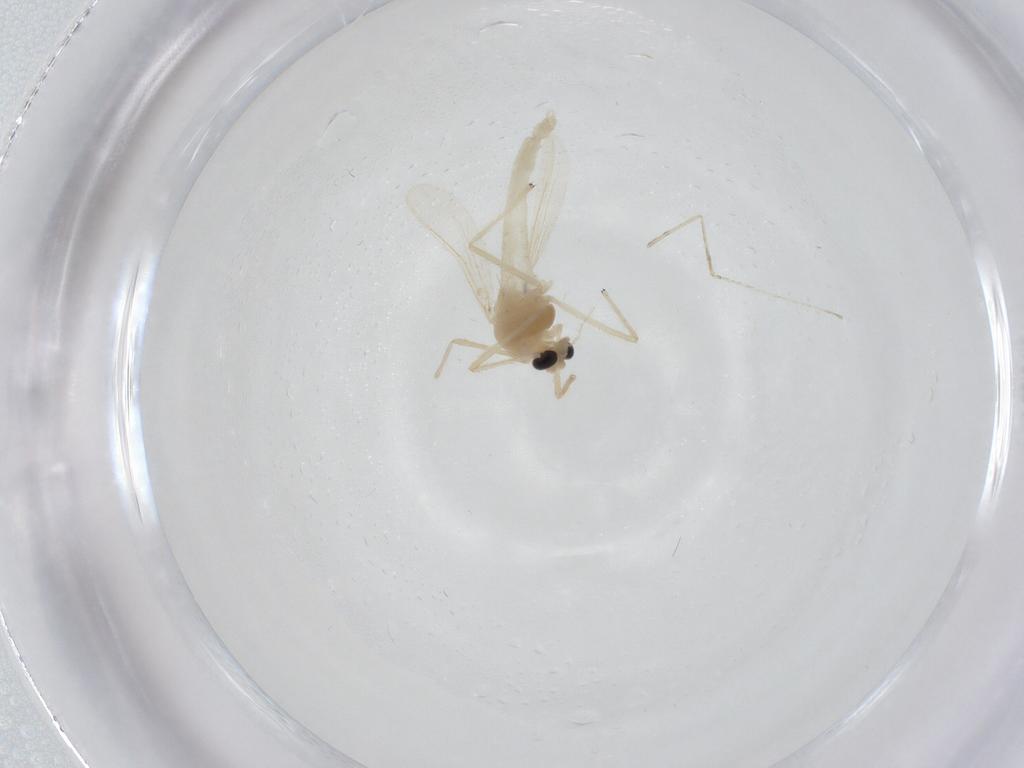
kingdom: Animalia
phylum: Arthropoda
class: Insecta
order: Diptera
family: Chironomidae
